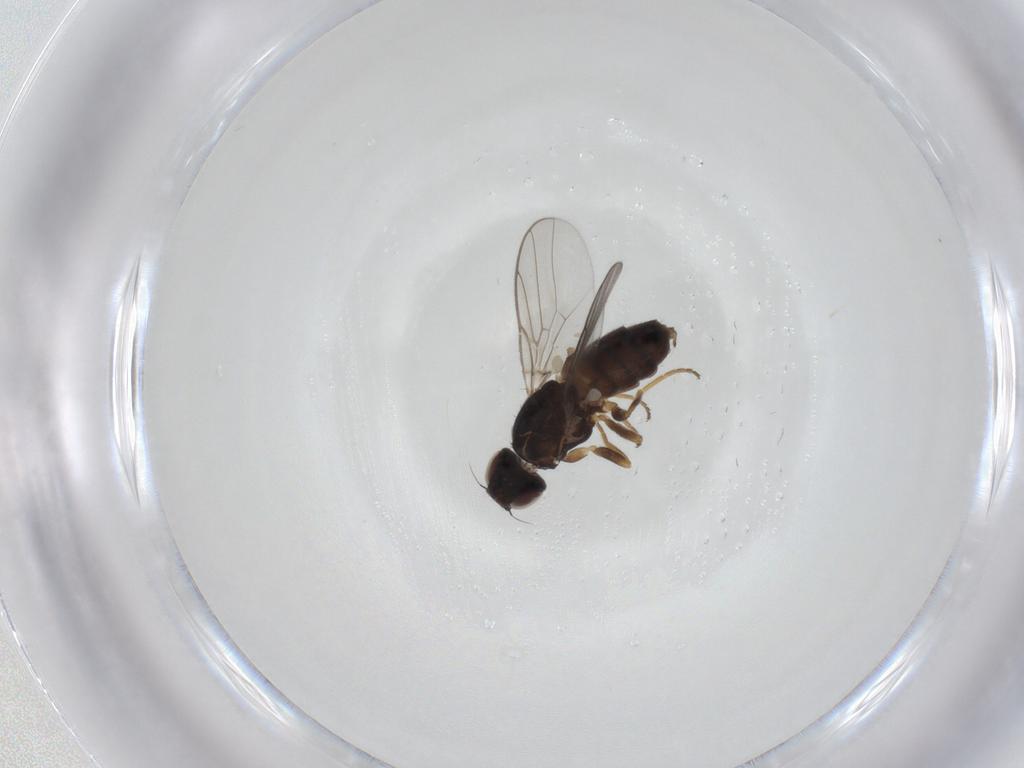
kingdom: Animalia
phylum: Arthropoda
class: Insecta
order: Diptera
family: Chloropidae
